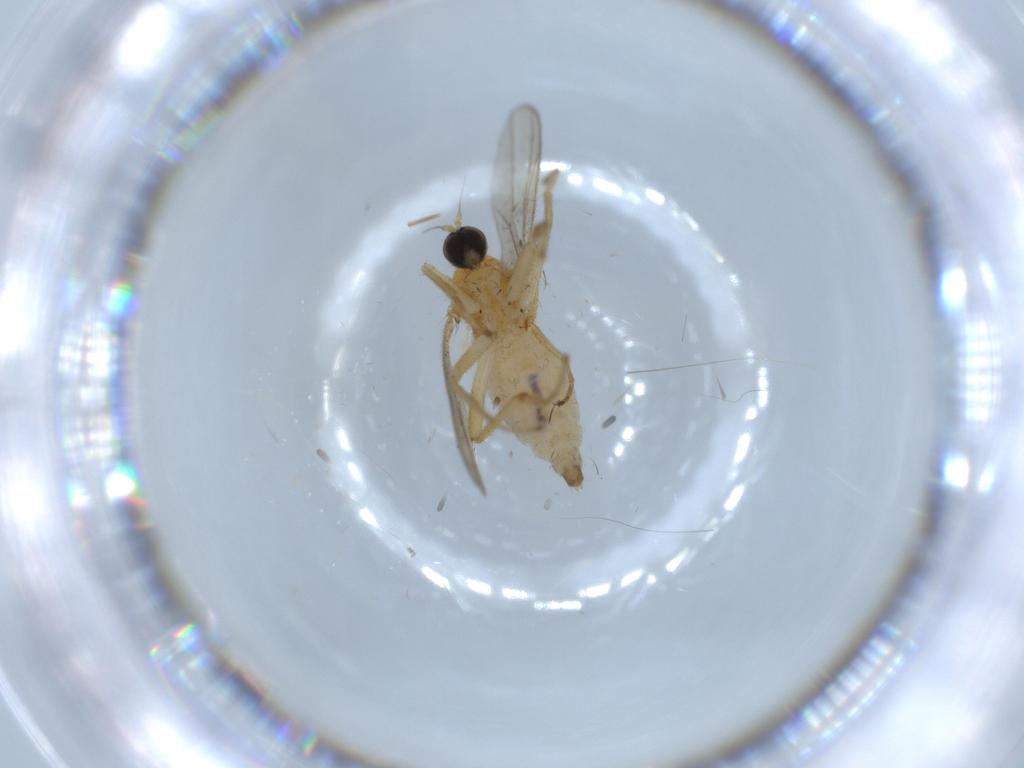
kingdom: Animalia
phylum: Arthropoda
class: Insecta
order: Diptera
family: Hybotidae
